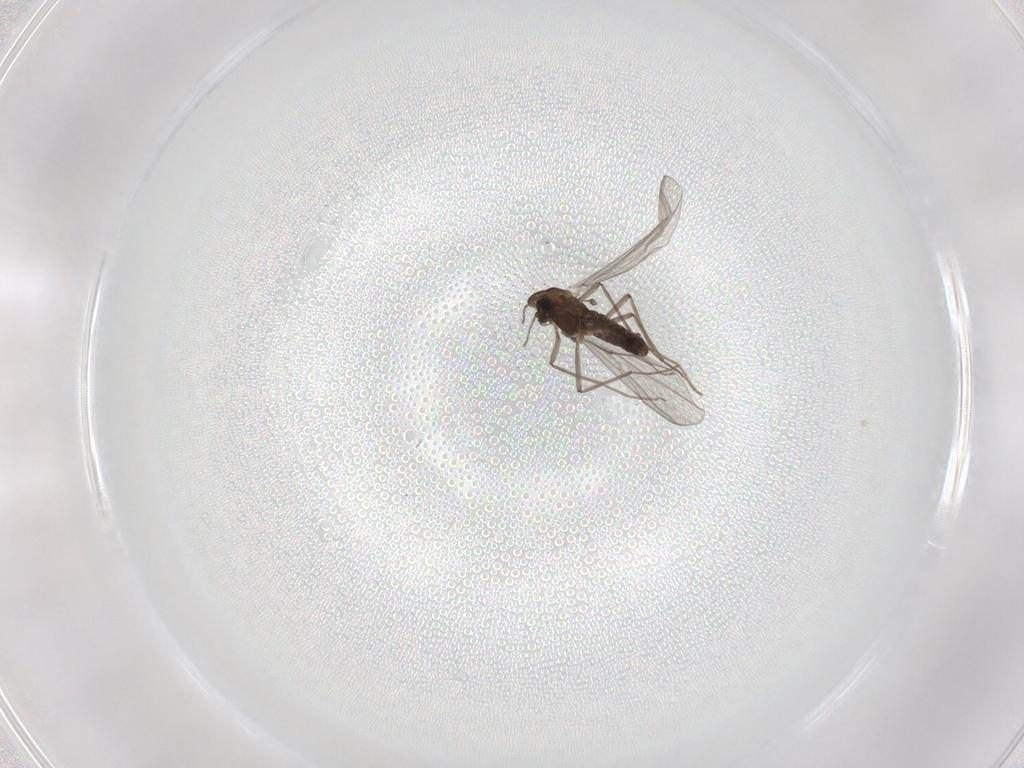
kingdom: Animalia
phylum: Arthropoda
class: Insecta
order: Diptera
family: Chironomidae
